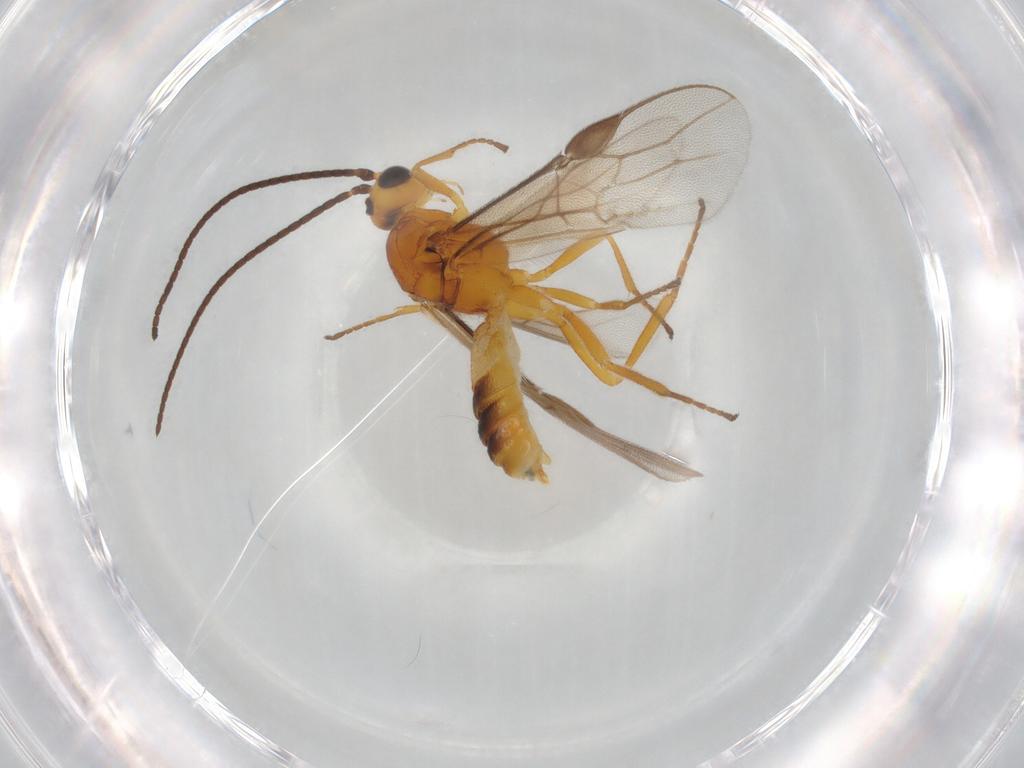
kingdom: Animalia
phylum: Arthropoda
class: Insecta
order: Hymenoptera
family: Braconidae
